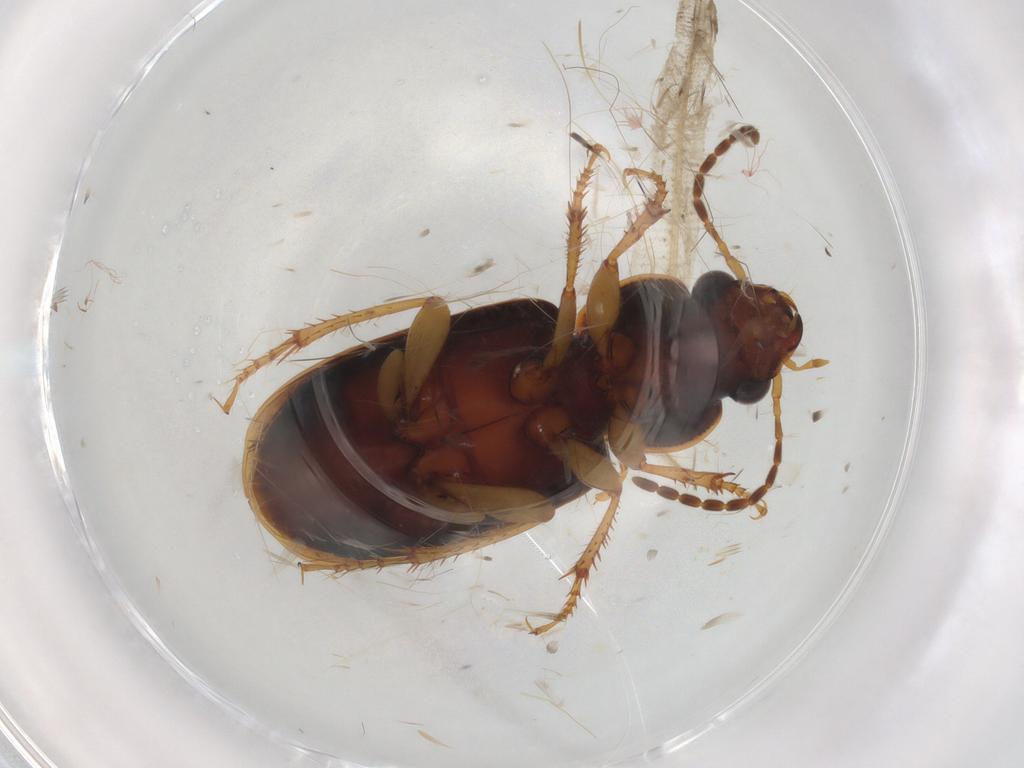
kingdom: Animalia
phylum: Arthropoda
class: Insecta
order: Coleoptera
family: Carabidae
